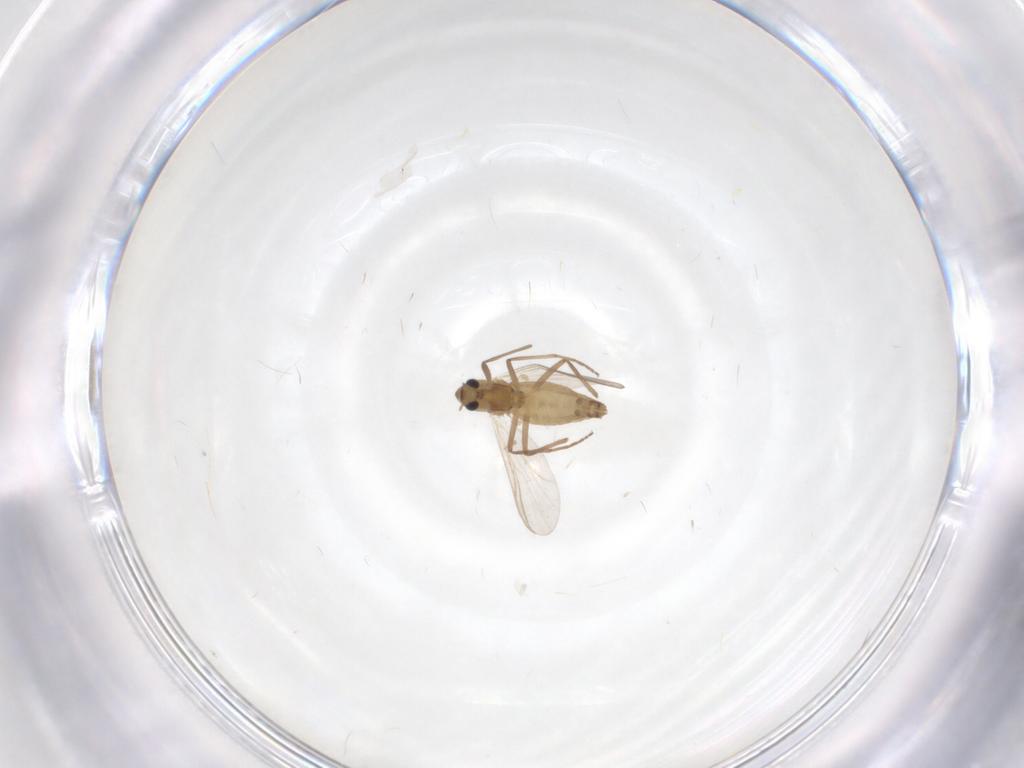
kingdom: Animalia
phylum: Arthropoda
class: Insecta
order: Diptera
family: Chironomidae
